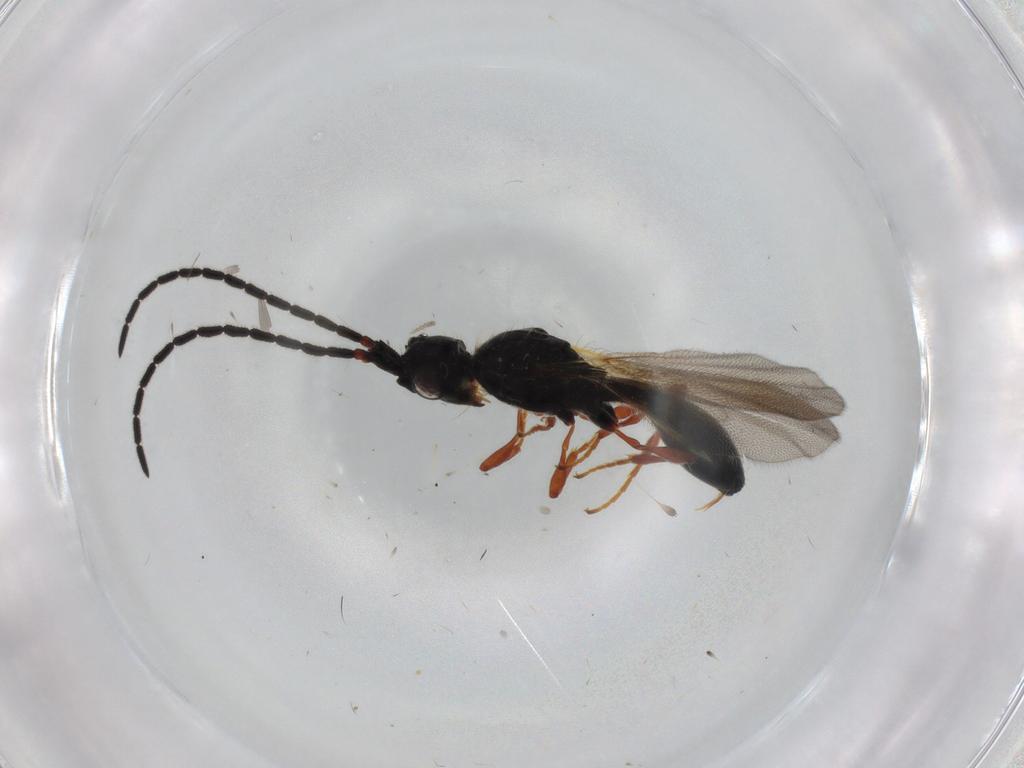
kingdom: Animalia
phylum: Arthropoda
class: Insecta
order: Hymenoptera
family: Diapriidae
